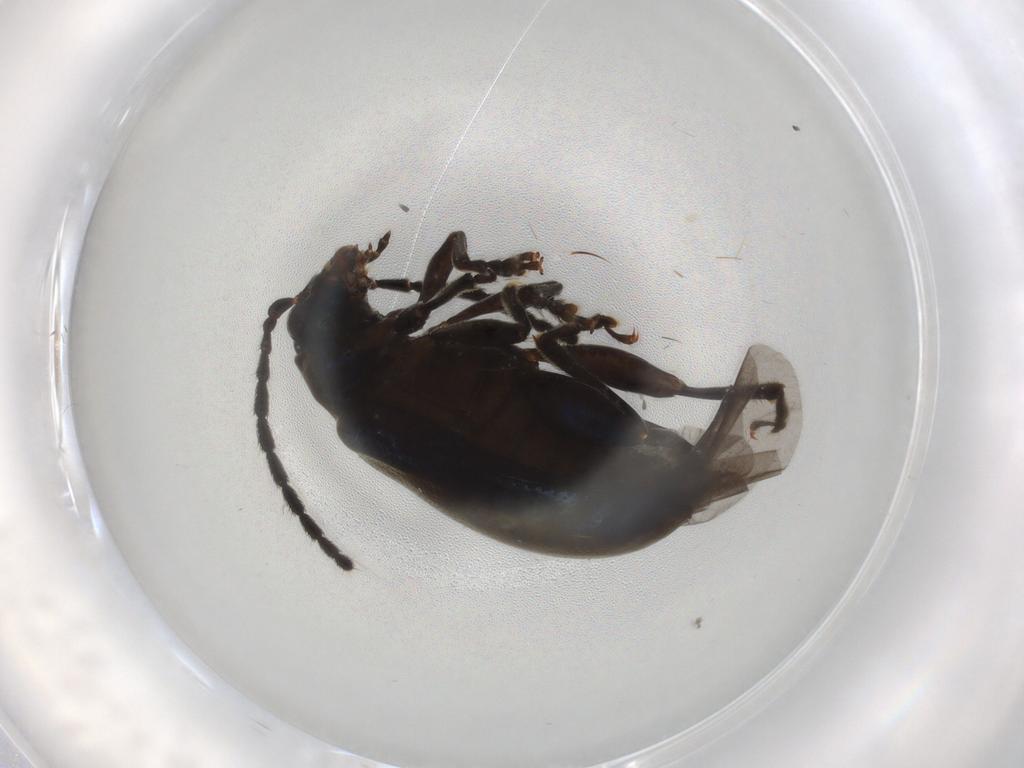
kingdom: Animalia
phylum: Arthropoda
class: Insecta
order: Coleoptera
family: Chrysomelidae
